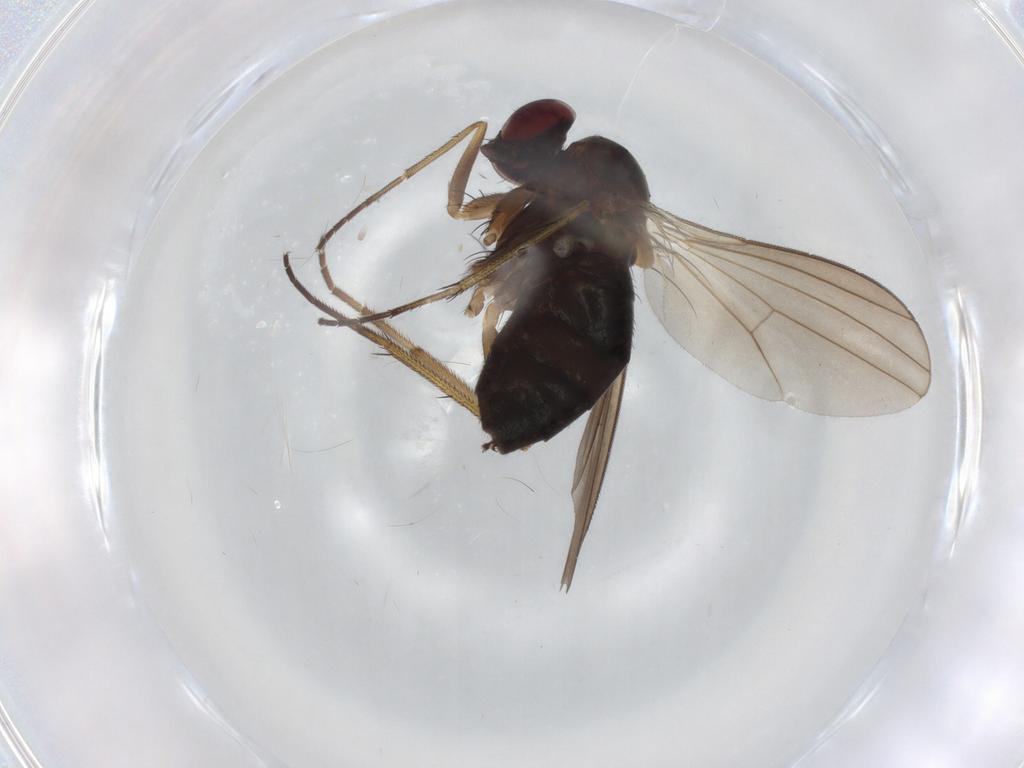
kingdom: Animalia
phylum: Arthropoda
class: Insecta
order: Diptera
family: Dolichopodidae
